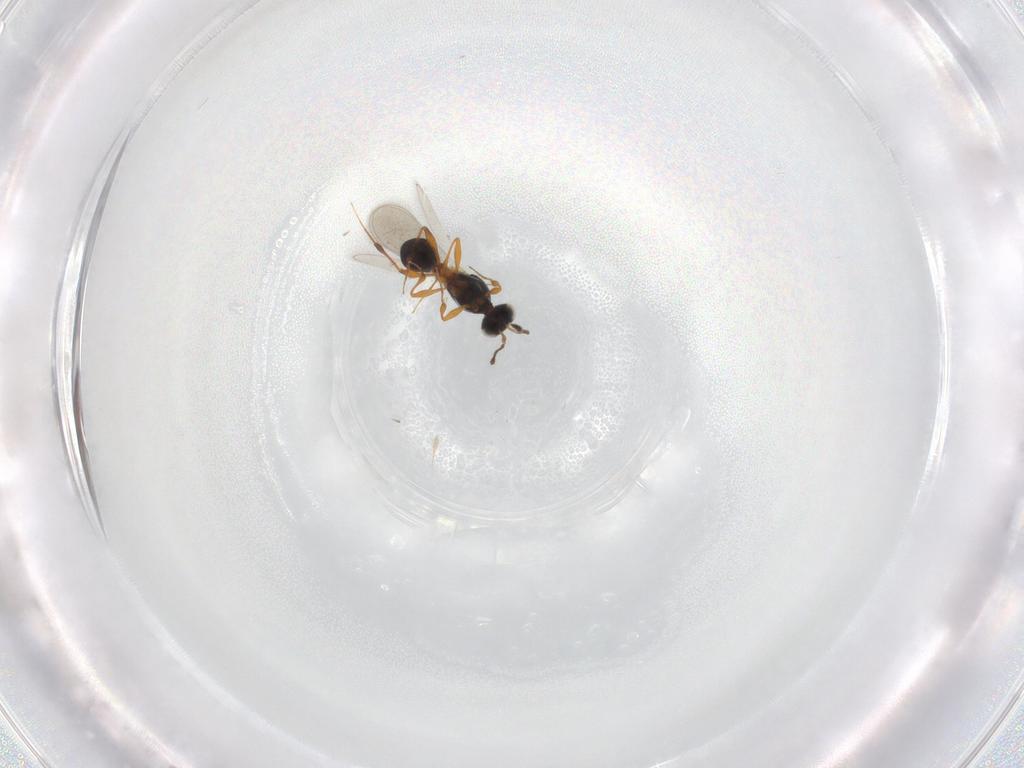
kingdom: Animalia
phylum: Arthropoda
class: Insecta
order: Hymenoptera
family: Platygastridae
